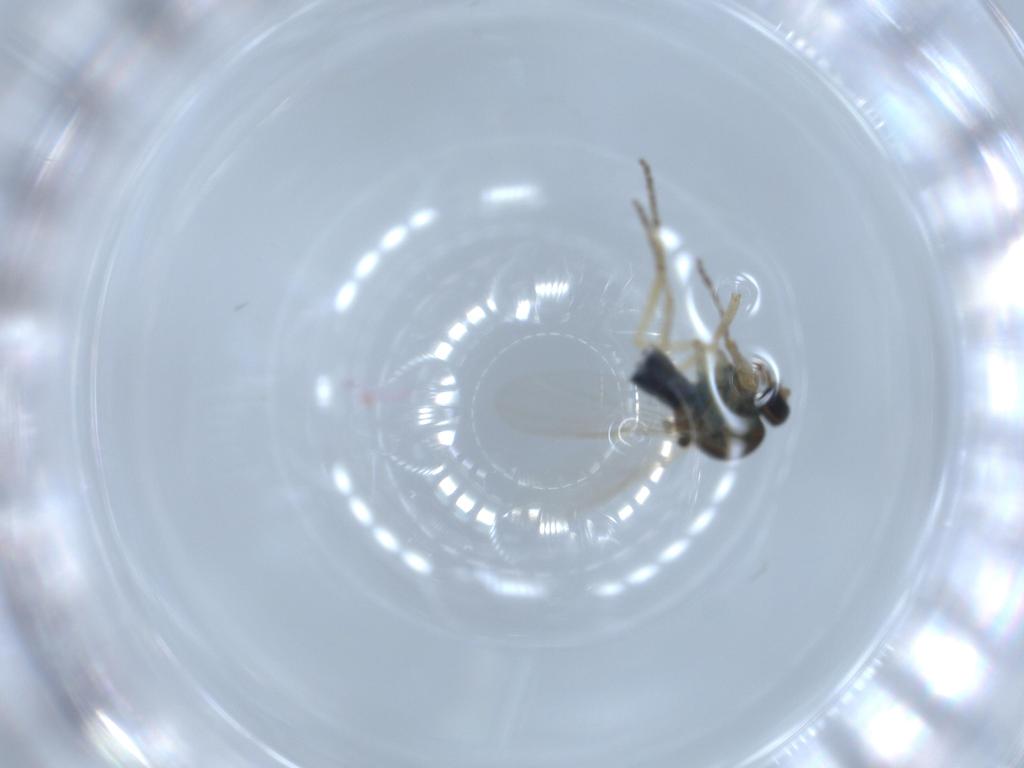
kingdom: Animalia
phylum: Arthropoda
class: Insecta
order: Diptera
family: Ceratopogonidae
